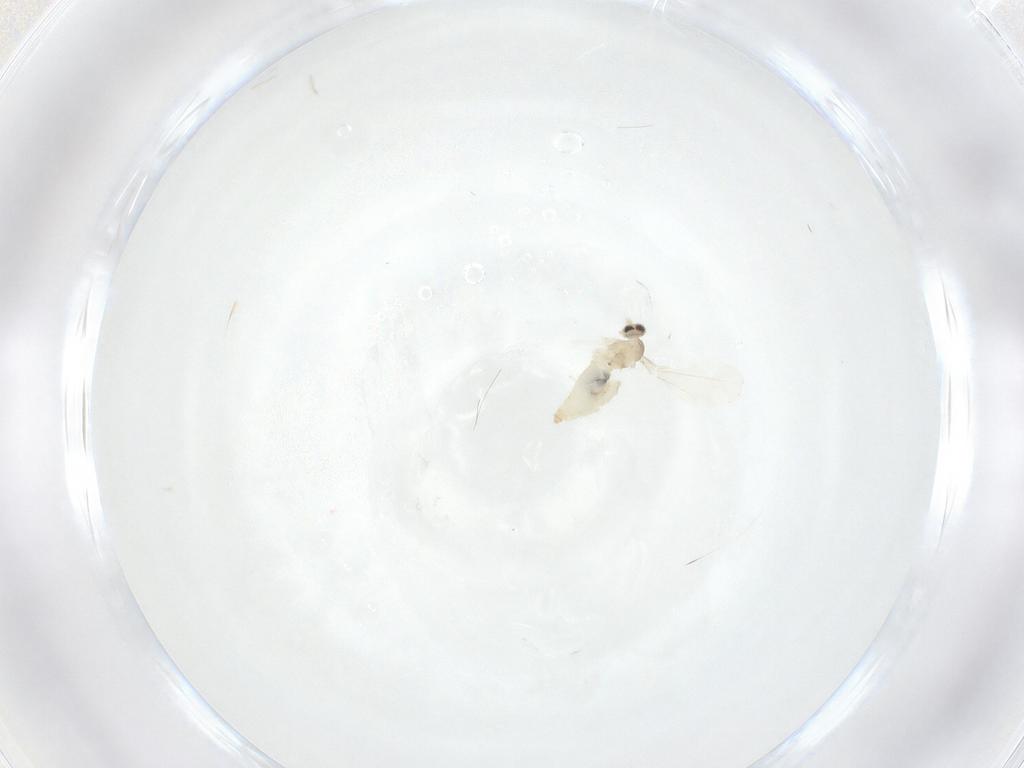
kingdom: Animalia
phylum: Arthropoda
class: Insecta
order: Diptera
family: Cecidomyiidae
